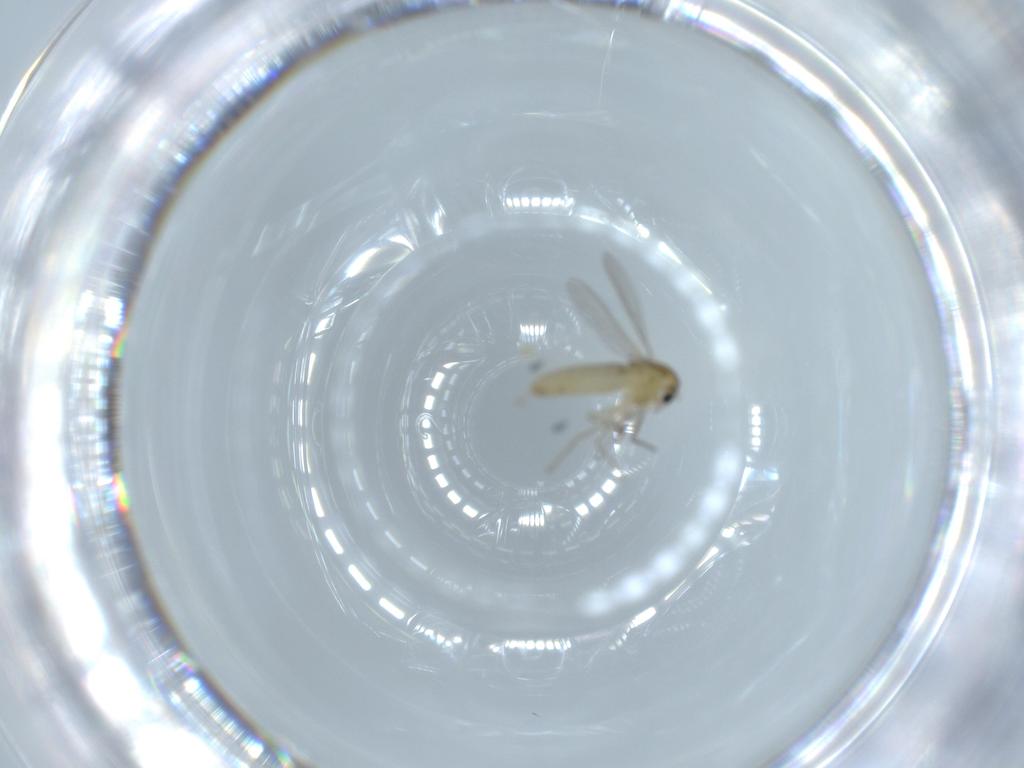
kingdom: Animalia
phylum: Arthropoda
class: Insecta
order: Diptera
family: Chironomidae
